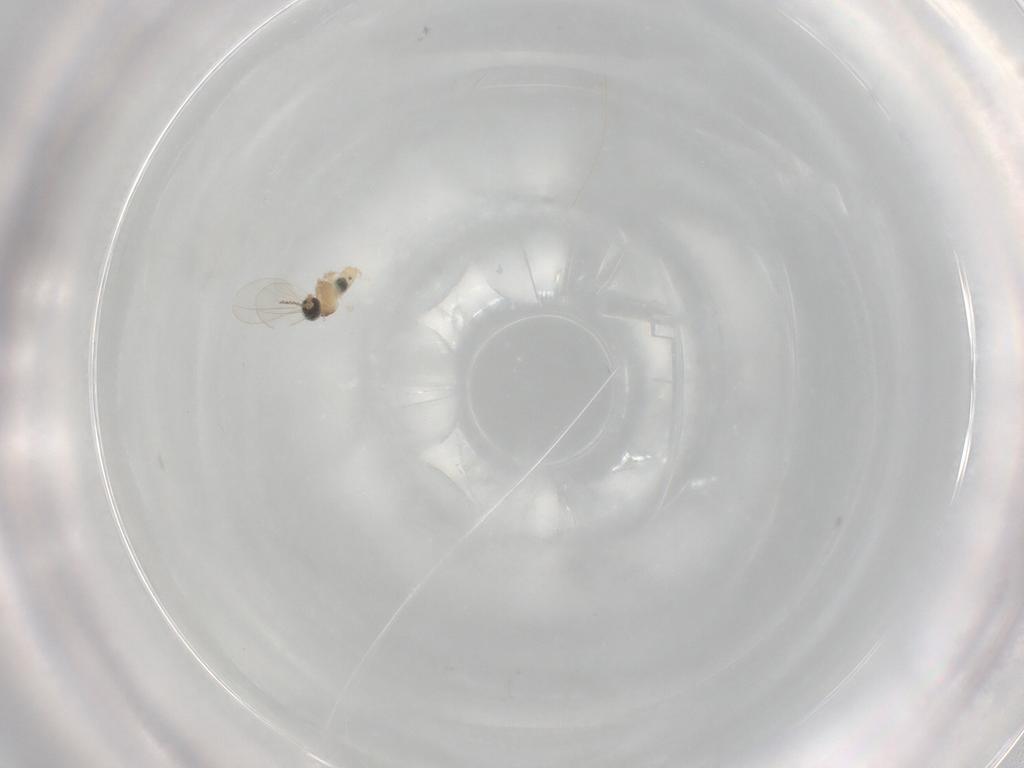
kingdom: Animalia
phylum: Arthropoda
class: Insecta
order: Diptera
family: Cecidomyiidae
